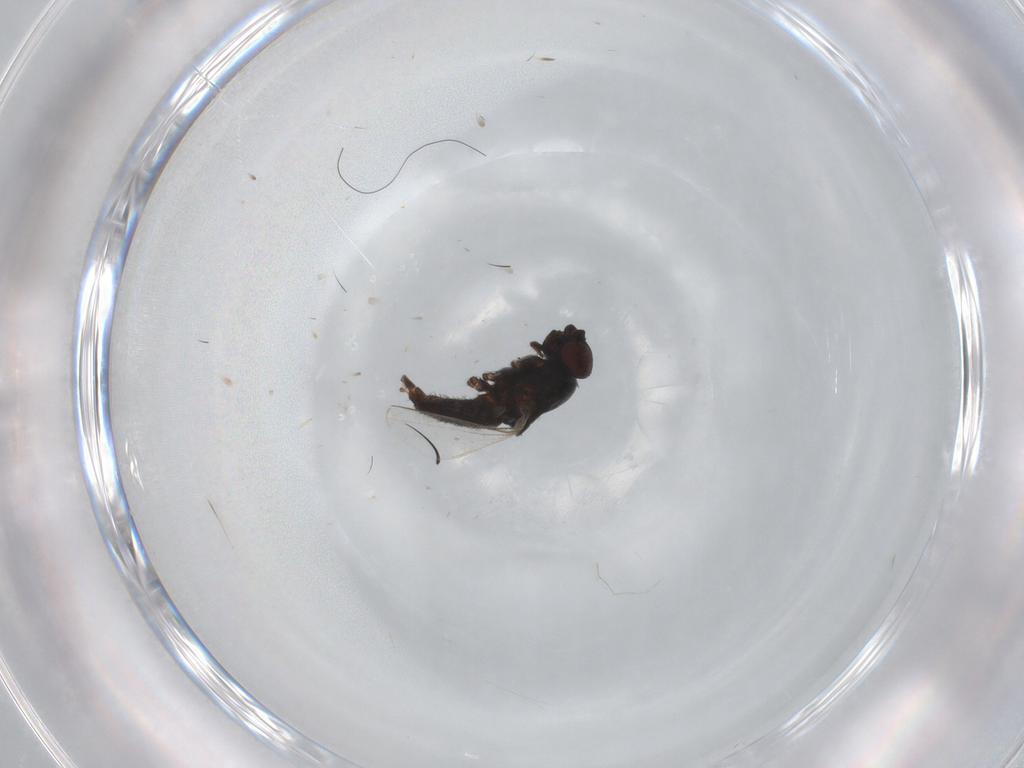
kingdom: Animalia
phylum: Arthropoda
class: Insecta
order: Diptera
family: Milichiidae
